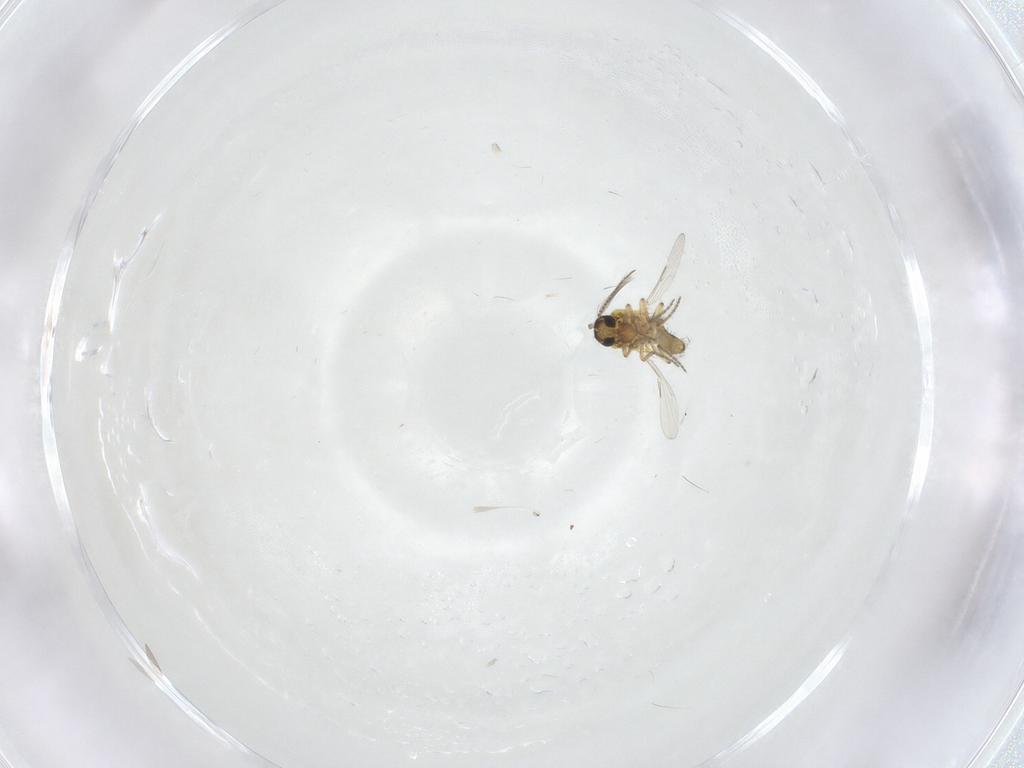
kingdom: Animalia
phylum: Arthropoda
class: Insecta
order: Diptera
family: Ceratopogonidae
